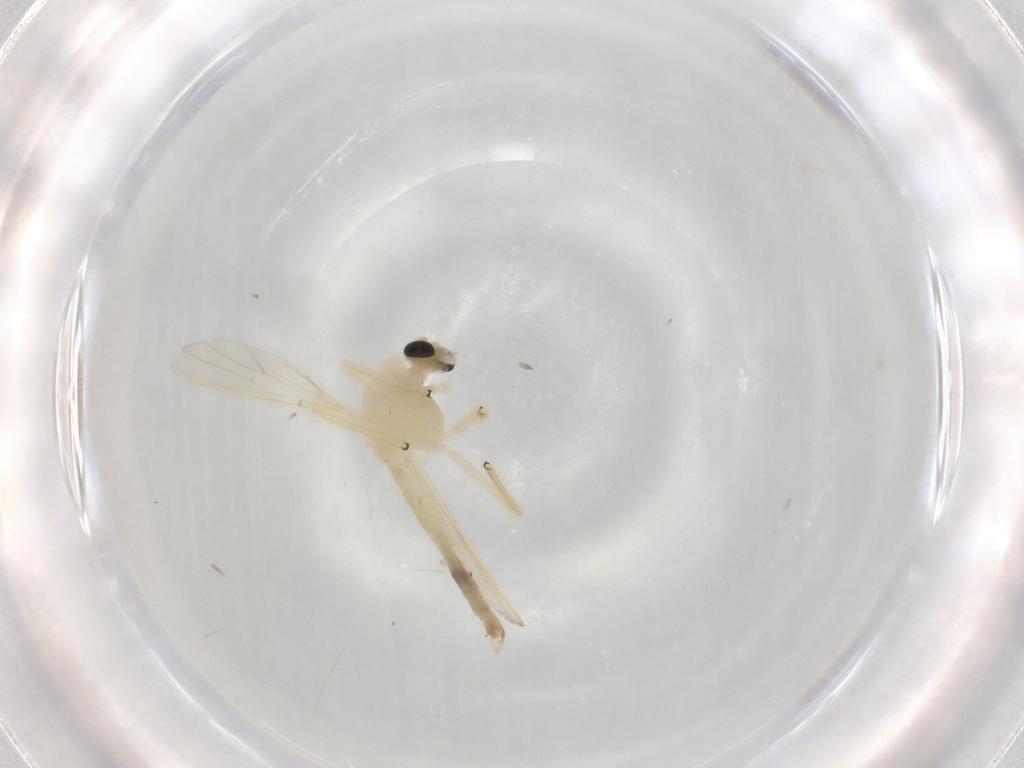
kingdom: Animalia
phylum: Arthropoda
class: Insecta
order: Diptera
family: Chironomidae
